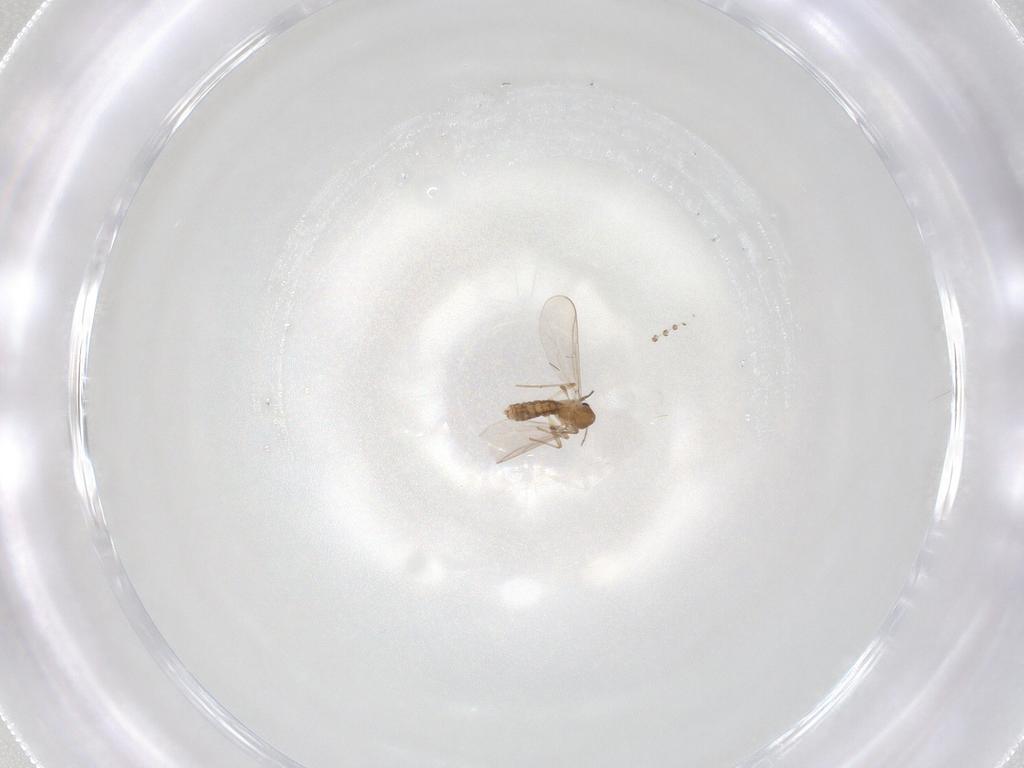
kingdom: Animalia
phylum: Arthropoda
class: Insecta
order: Diptera
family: Chironomidae
